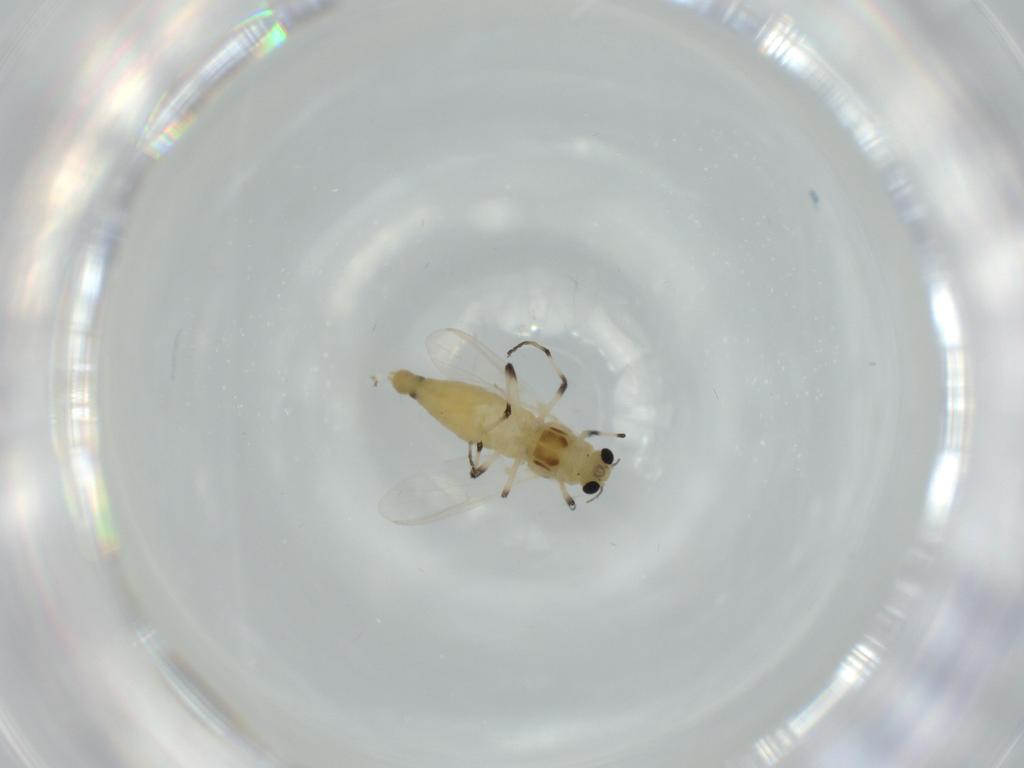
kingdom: Animalia
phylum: Arthropoda
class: Insecta
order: Diptera
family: Chironomidae
